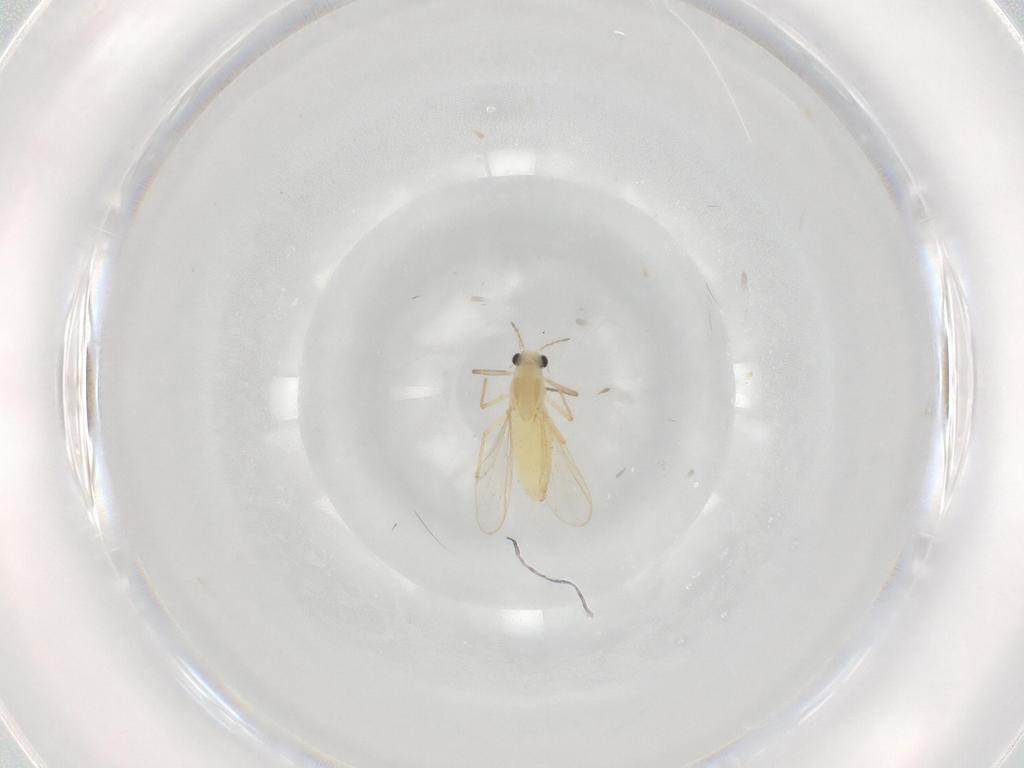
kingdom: Animalia
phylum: Arthropoda
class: Insecta
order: Diptera
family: Chironomidae
